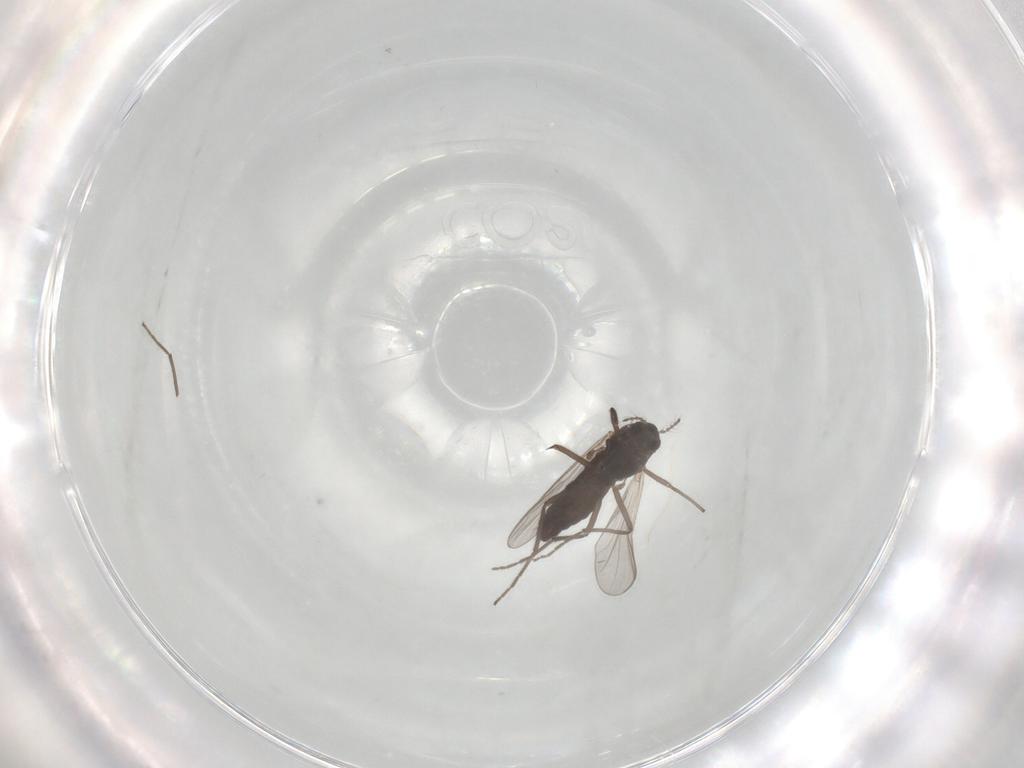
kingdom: Animalia
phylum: Arthropoda
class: Insecta
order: Diptera
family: Chironomidae
